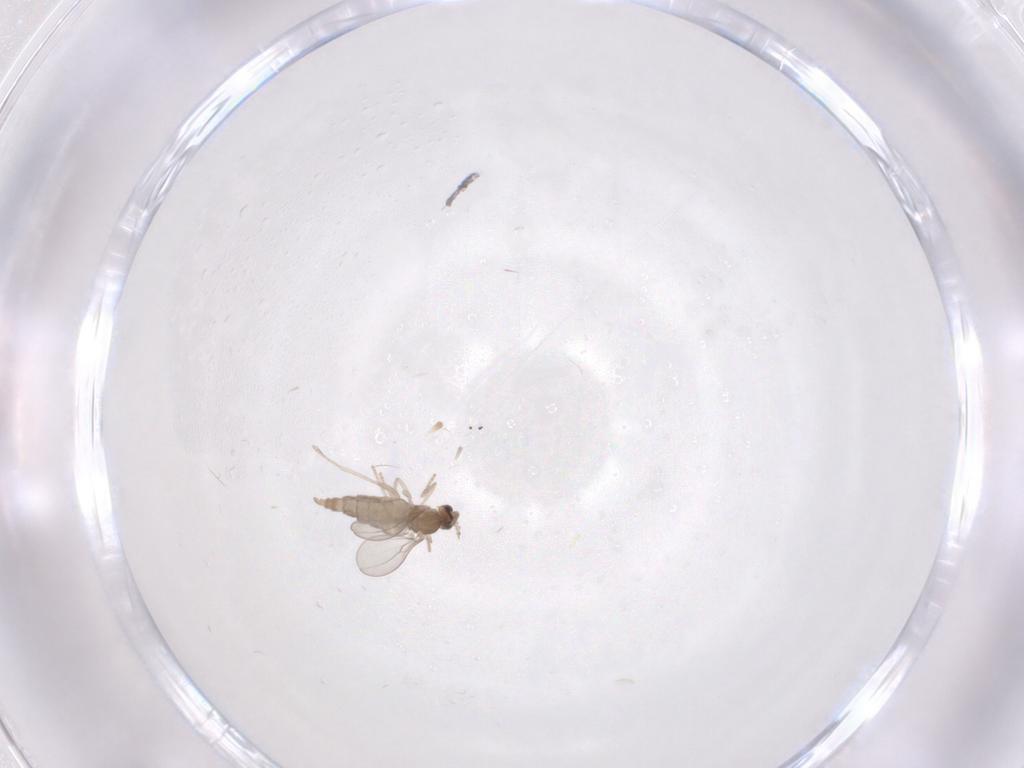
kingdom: Animalia
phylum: Arthropoda
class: Insecta
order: Diptera
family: Cecidomyiidae
